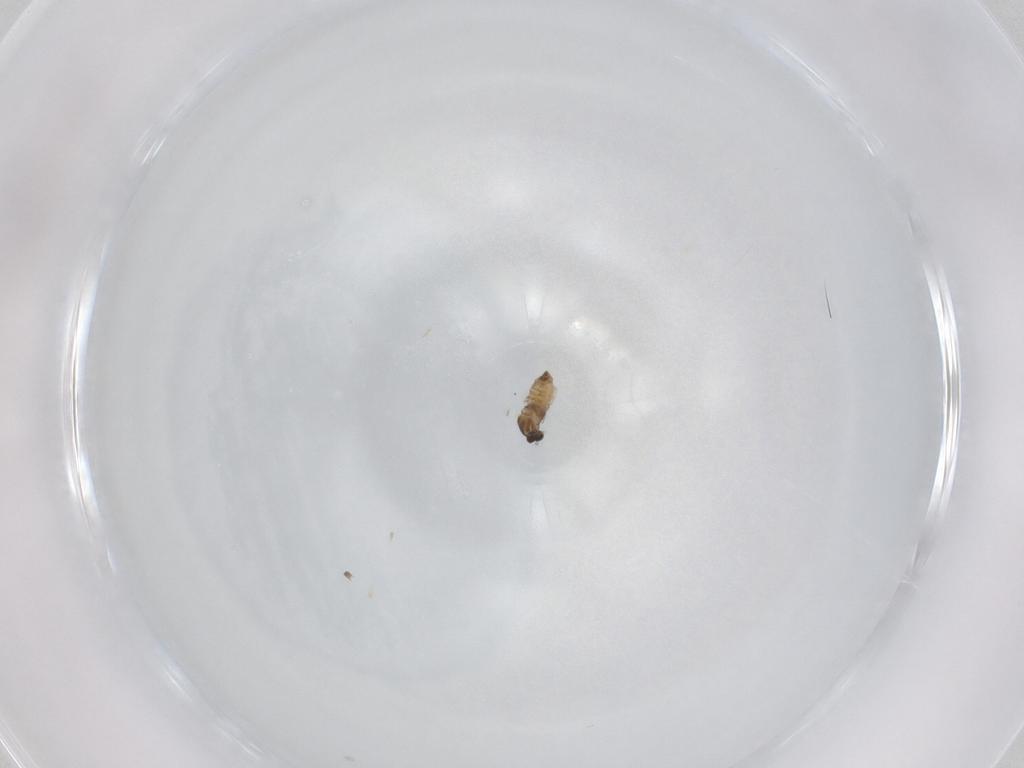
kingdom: Animalia
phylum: Arthropoda
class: Insecta
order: Diptera
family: Cecidomyiidae
